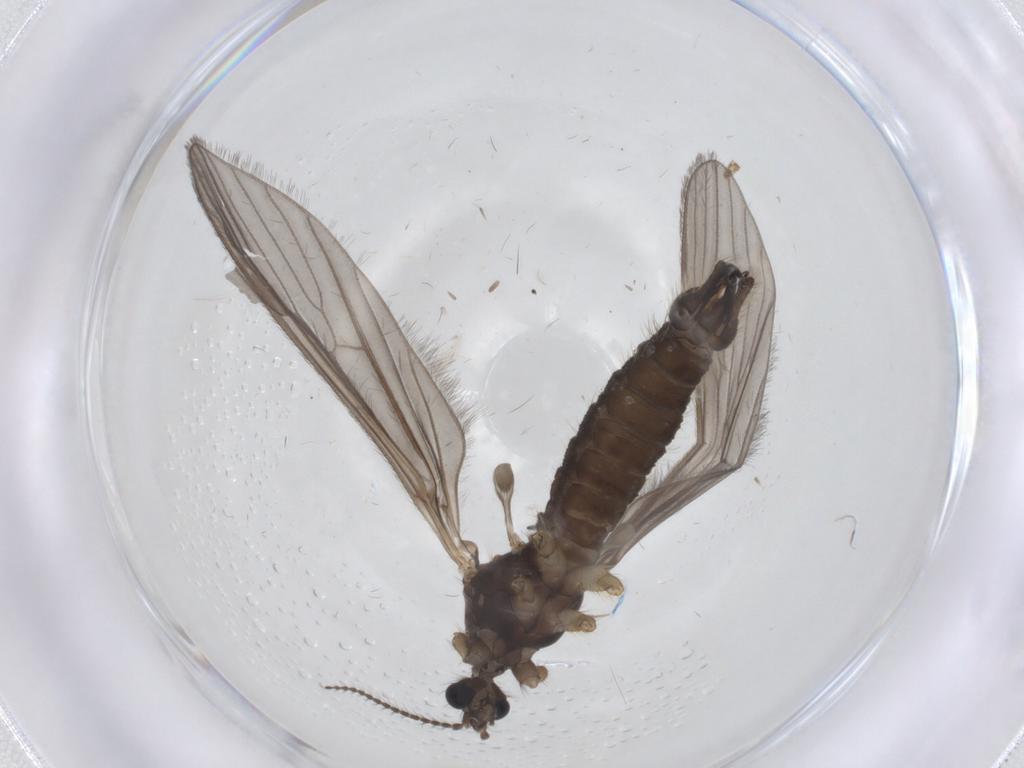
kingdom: Animalia
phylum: Arthropoda
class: Insecta
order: Diptera
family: Limoniidae
